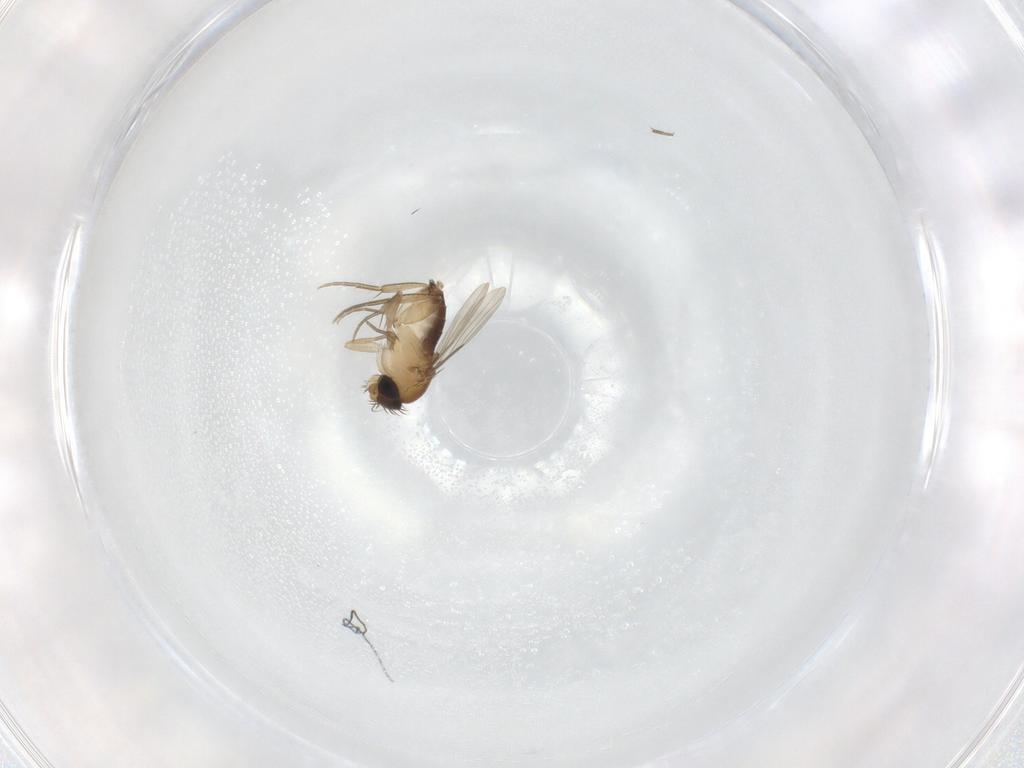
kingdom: Animalia
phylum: Arthropoda
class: Insecta
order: Diptera
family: Phoridae
